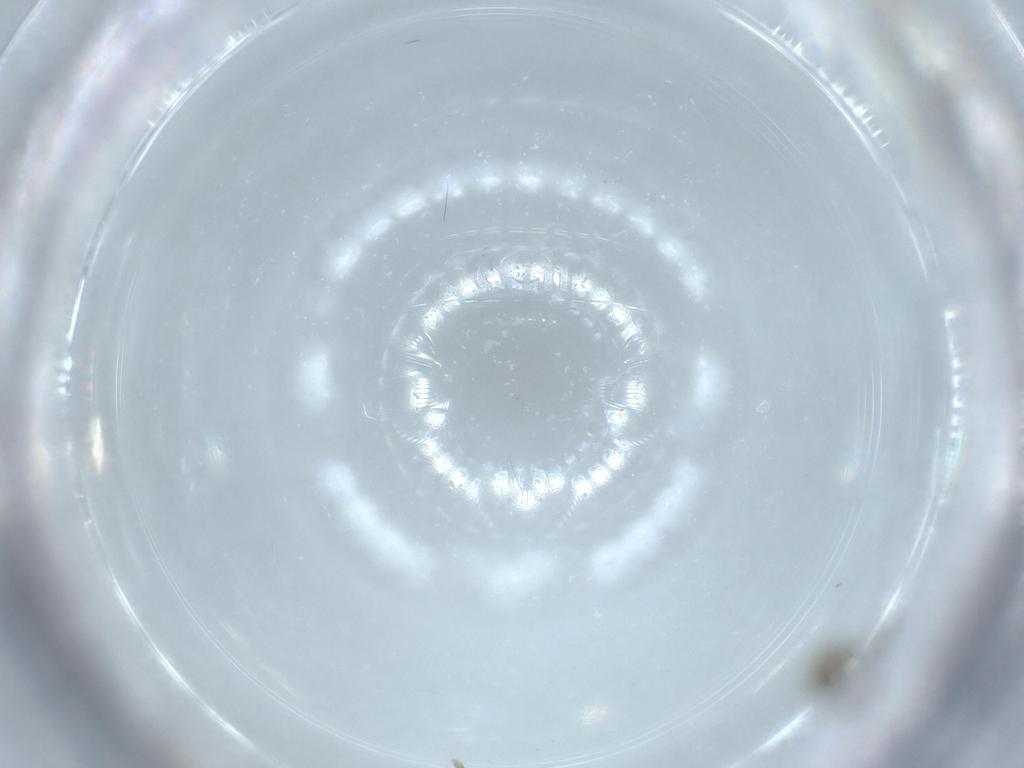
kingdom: Animalia
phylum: Arthropoda
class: Insecta
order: Diptera
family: Cecidomyiidae
